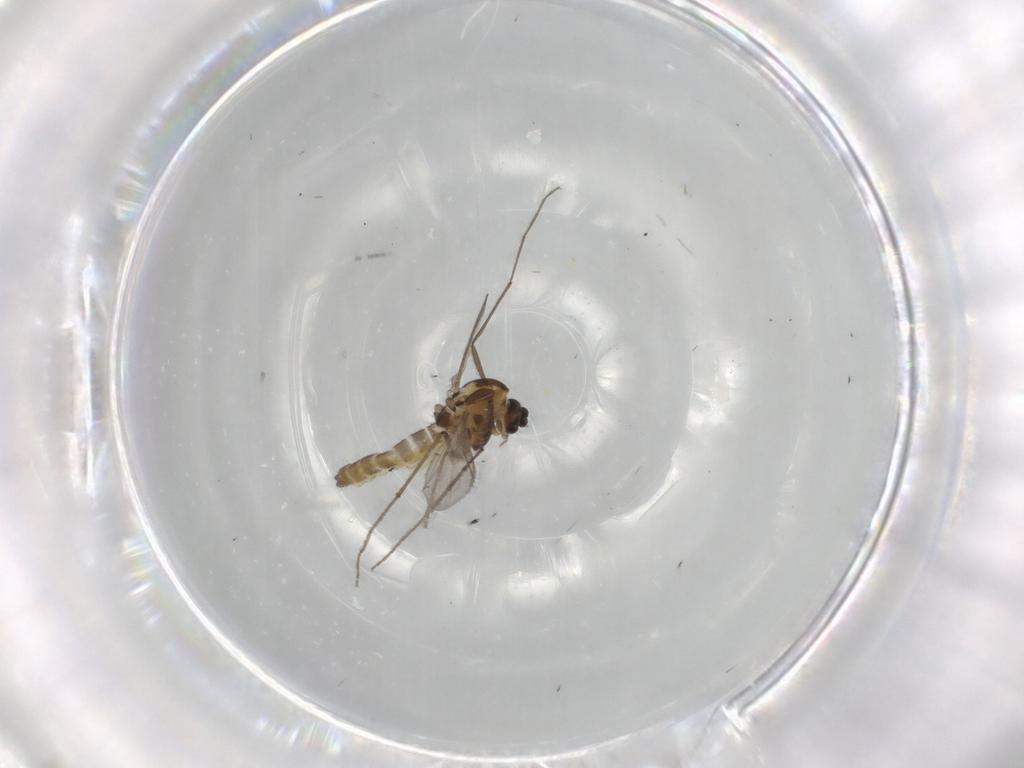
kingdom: Animalia
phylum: Arthropoda
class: Insecta
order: Diptera
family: Chironomidae
